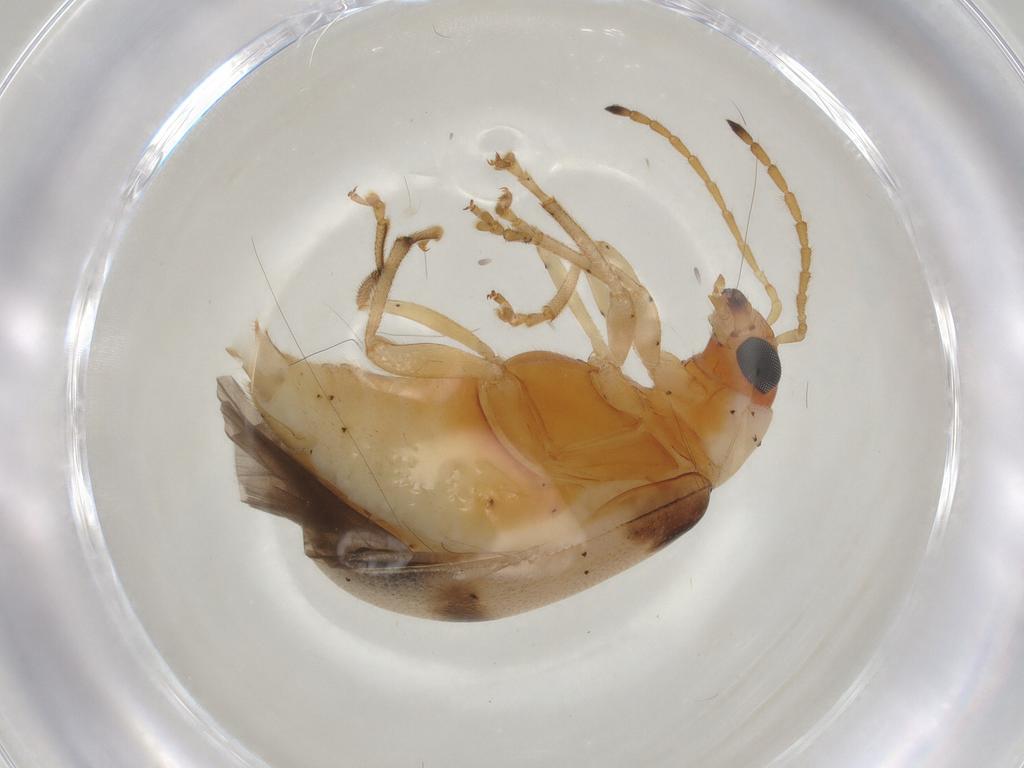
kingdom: Animalia
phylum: Arthropoda
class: Insecta
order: Coleoptera
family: Chrysomelidae
